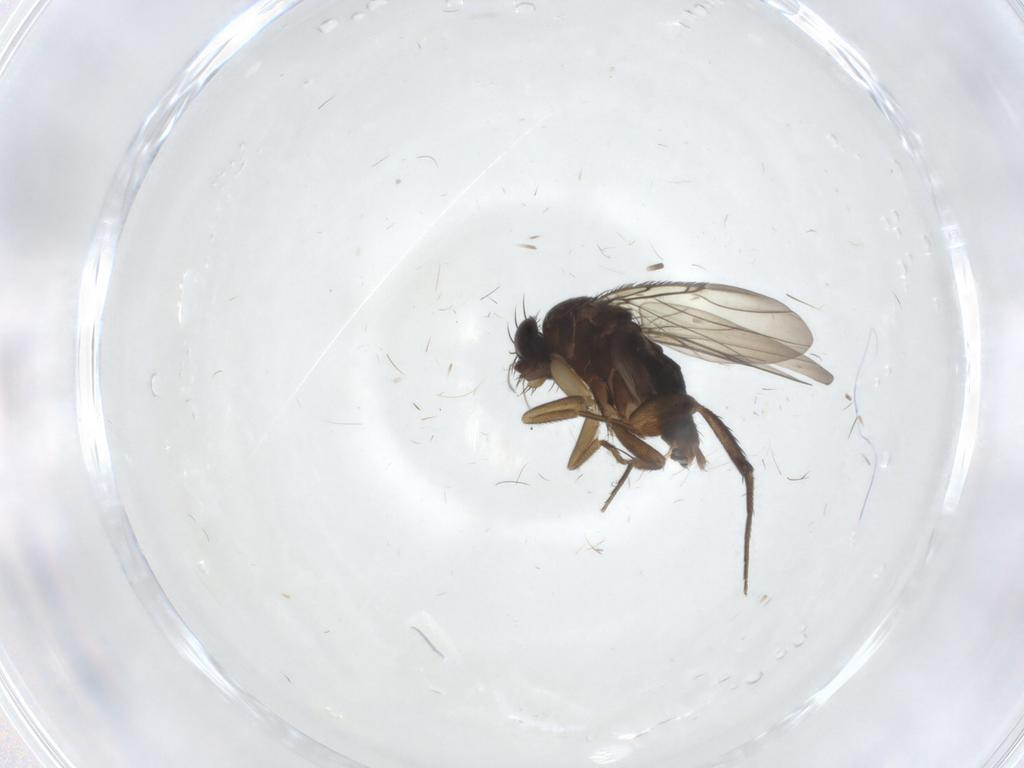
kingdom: Animalia
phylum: Arthropoda
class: Insecta
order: Diptera
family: Phoridae
